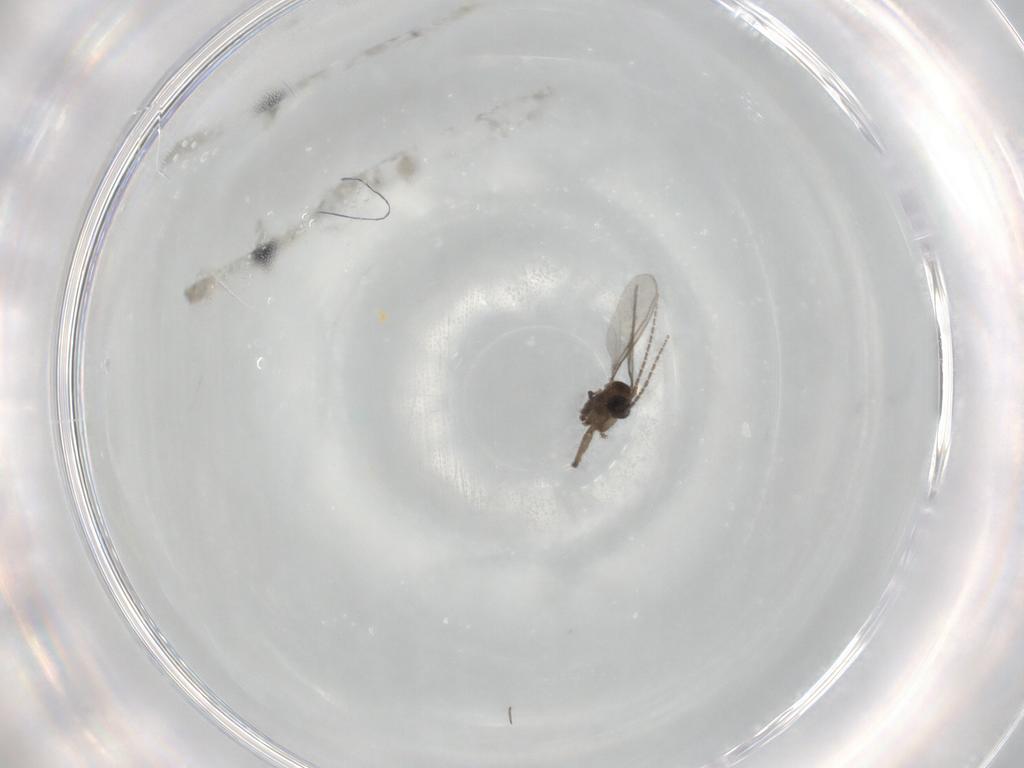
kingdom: Animalia
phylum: Arthropoda
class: Insecta
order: Diptera
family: Sciaridae
